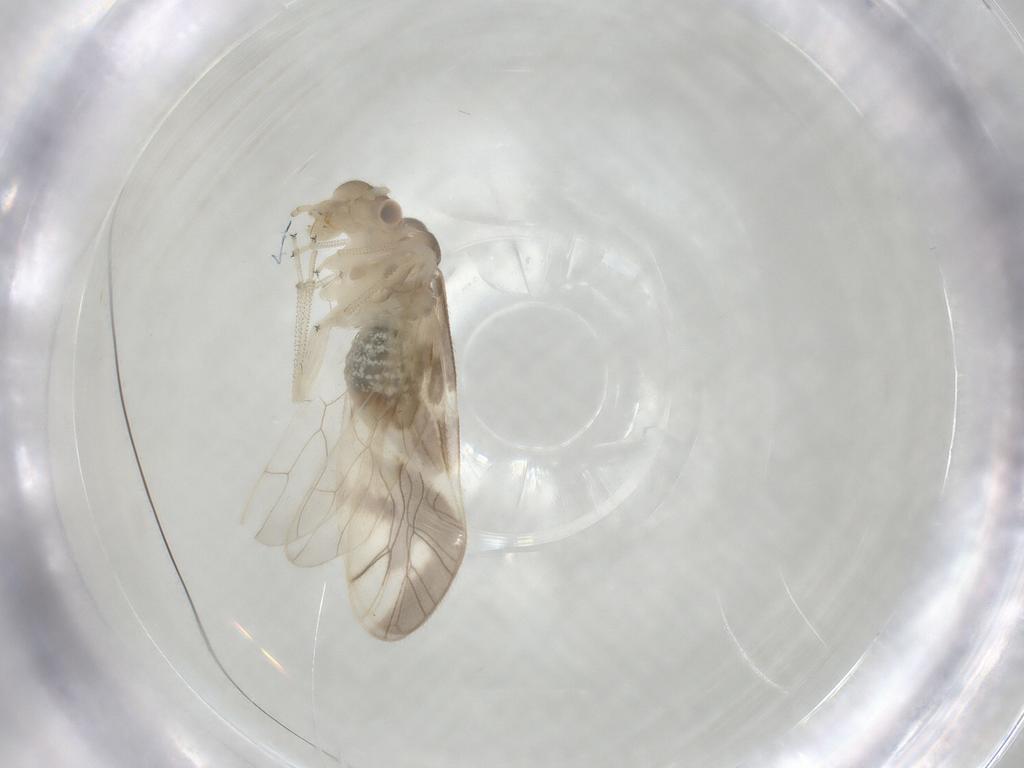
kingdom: Animalia
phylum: Arthropoda
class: Insecta
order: Psocodea
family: Caeciliusidae
